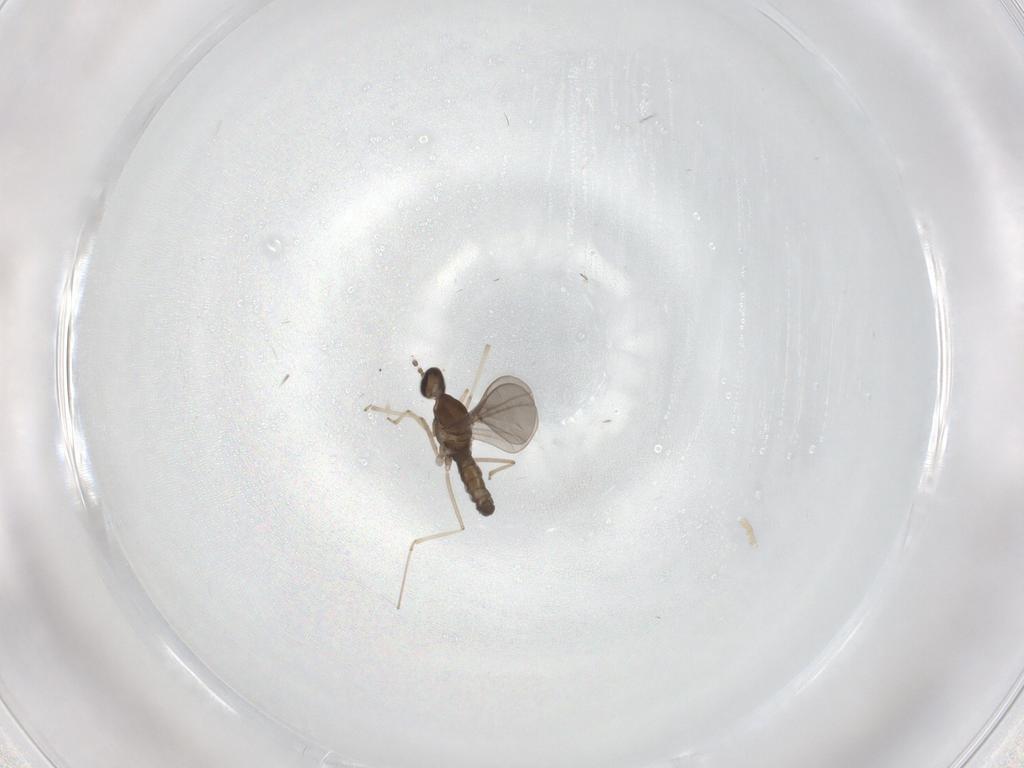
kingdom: Animalia
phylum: Arthropoda
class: Insecta
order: Diptera
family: Cecidomyiidae
